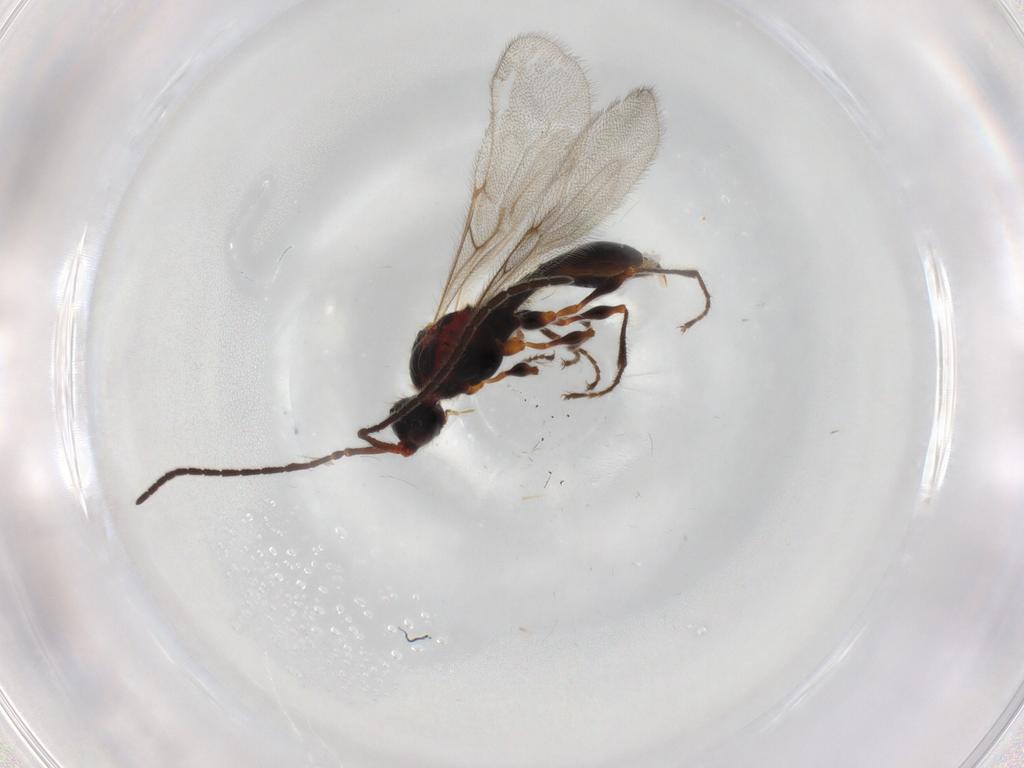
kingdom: Animalia
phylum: Arthropoda
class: Insecta
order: Hymenoptera
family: Diapriidae
